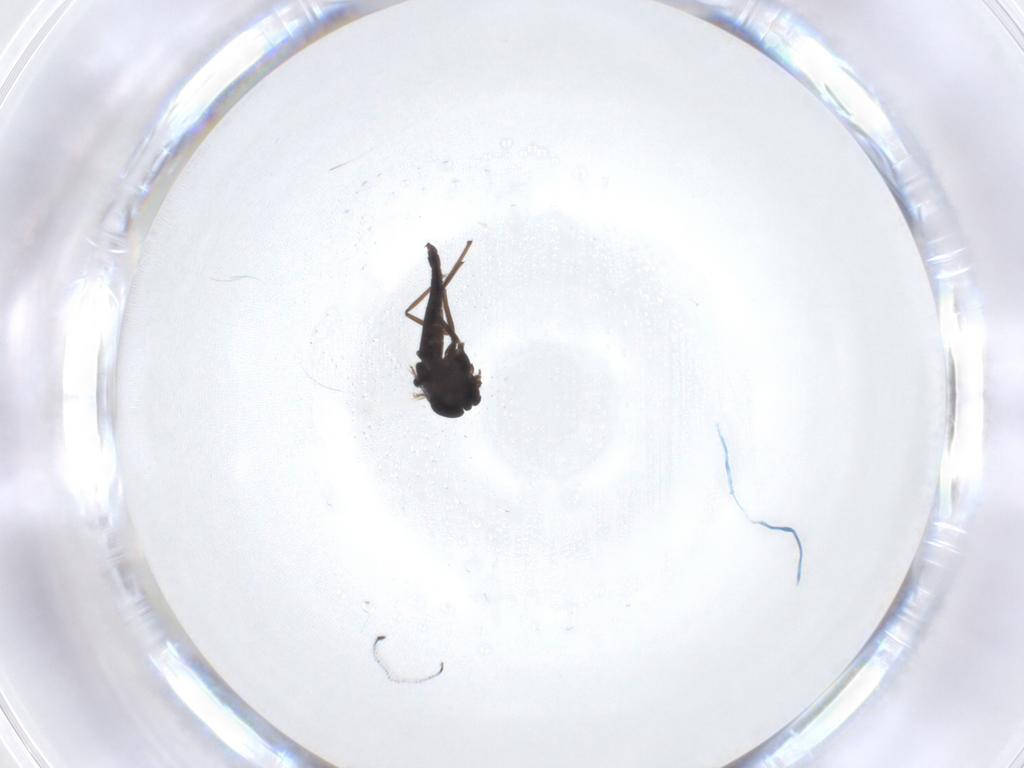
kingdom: Animalia
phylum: Arthropoda
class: Insecta
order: Diptera
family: Chironomidae
